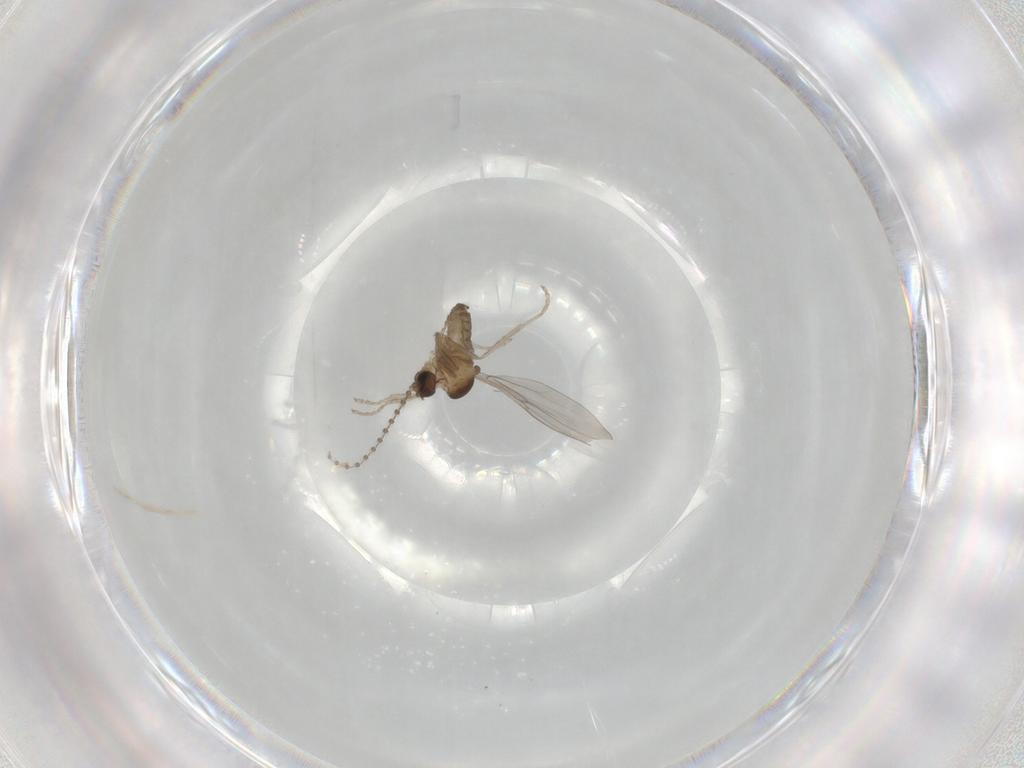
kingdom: Animalia
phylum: Arthropoda
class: Insecta
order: Diptera
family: Cecidomyiidae
